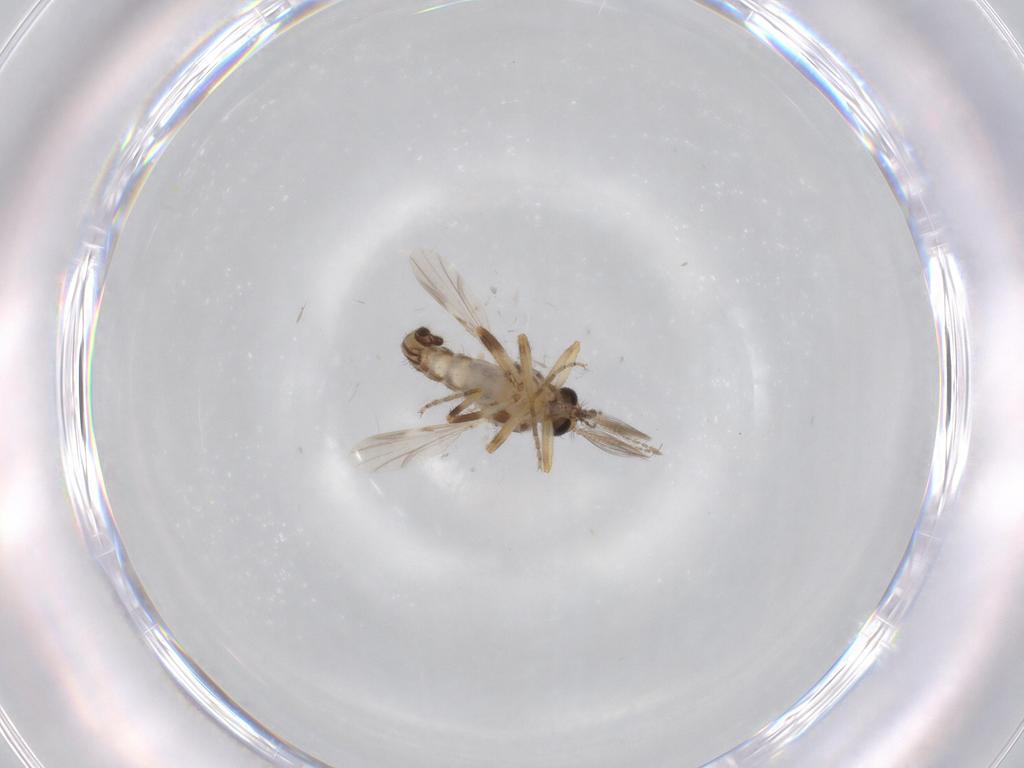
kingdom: Animalia
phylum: Arthropoda
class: Insecta
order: Diptera
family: Ceratopogonidae
